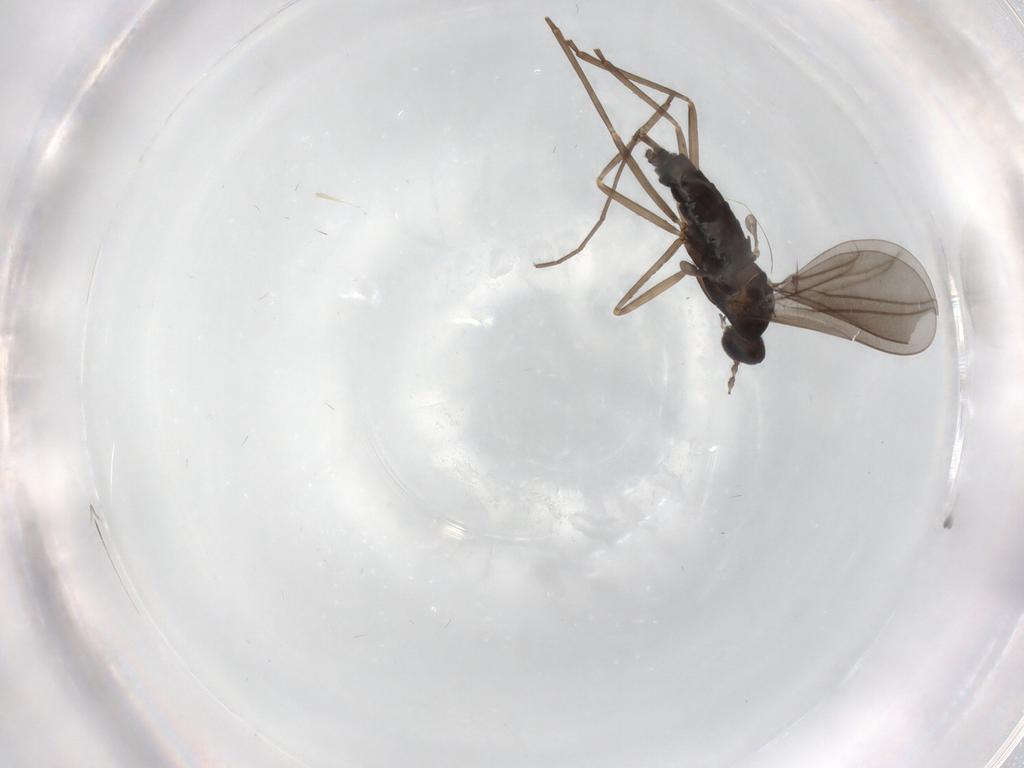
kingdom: Animalia
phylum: Arthropoda
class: Insecta
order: Diptera
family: Cecidomyiidae
